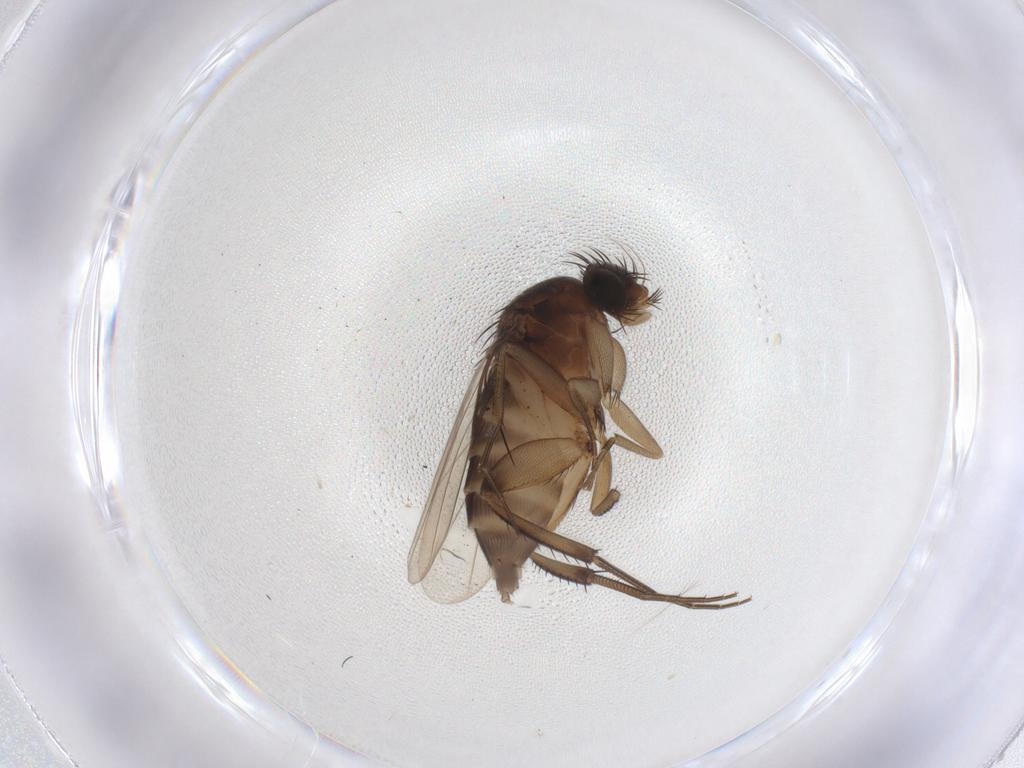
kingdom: Animalia
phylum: Arthropoda
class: Insecta
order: Diptera
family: Phoridae
